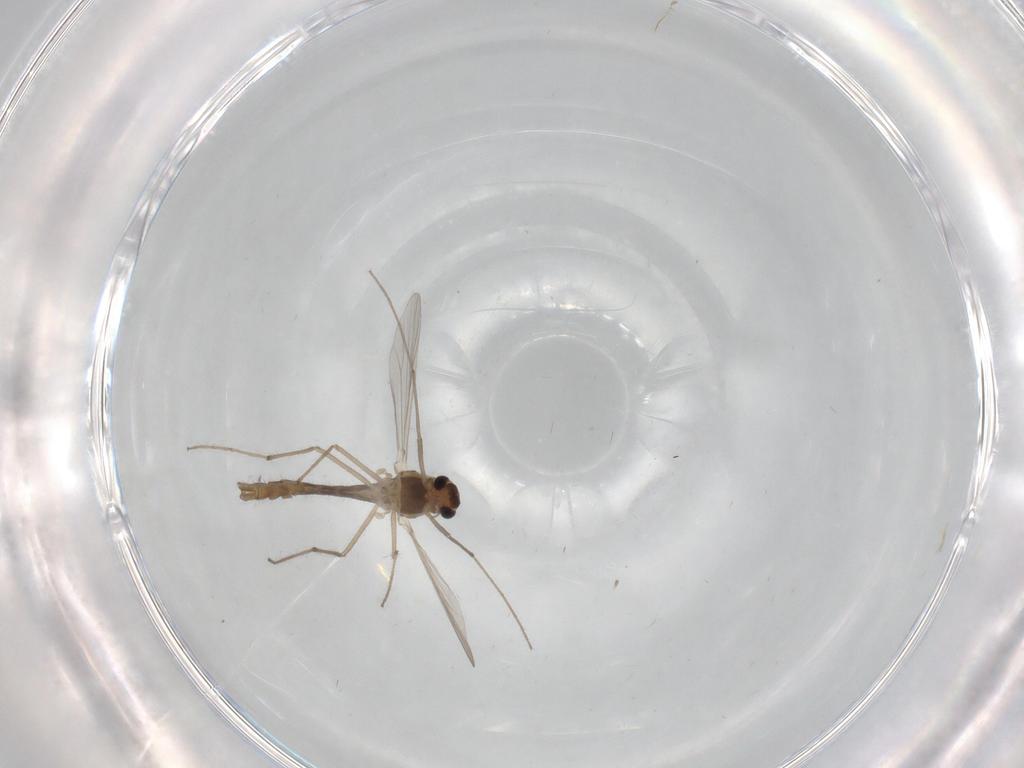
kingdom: Animalia
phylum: Arthropoda
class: Insecta
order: Diptera
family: Chironomidae
